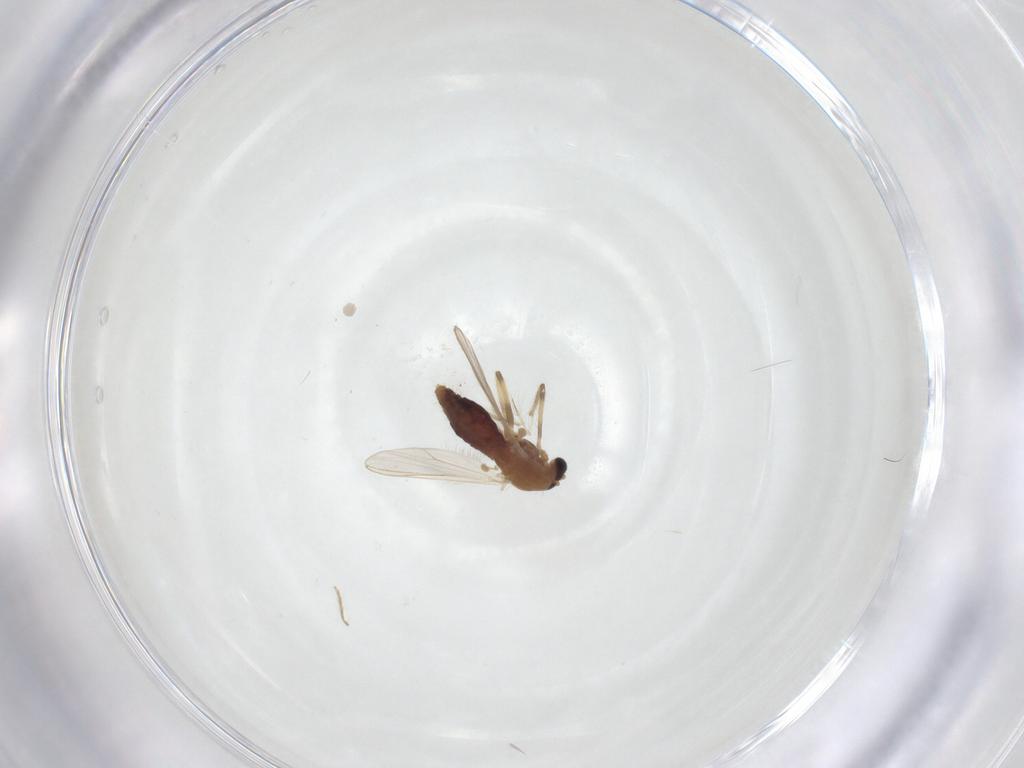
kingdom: Animalia
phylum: Arthropoda
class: Insecta
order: Diptera
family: Chironomidae
